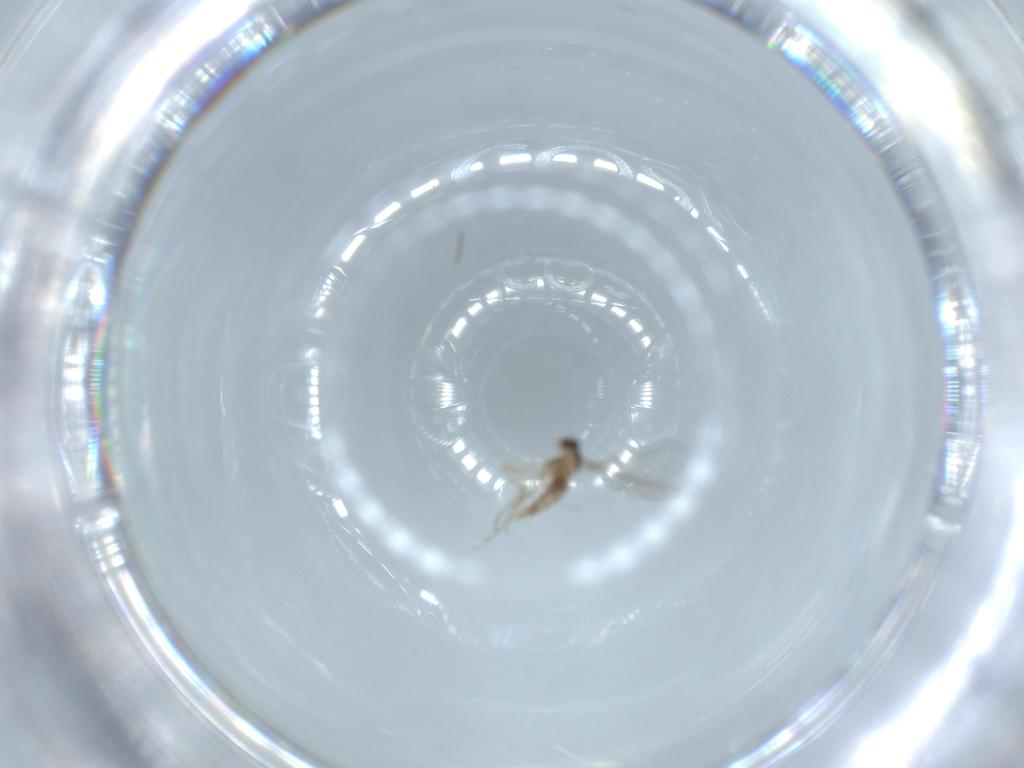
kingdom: Animalia
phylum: Arthropoda
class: Insecta
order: Diptera
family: Cecidomyiidae
